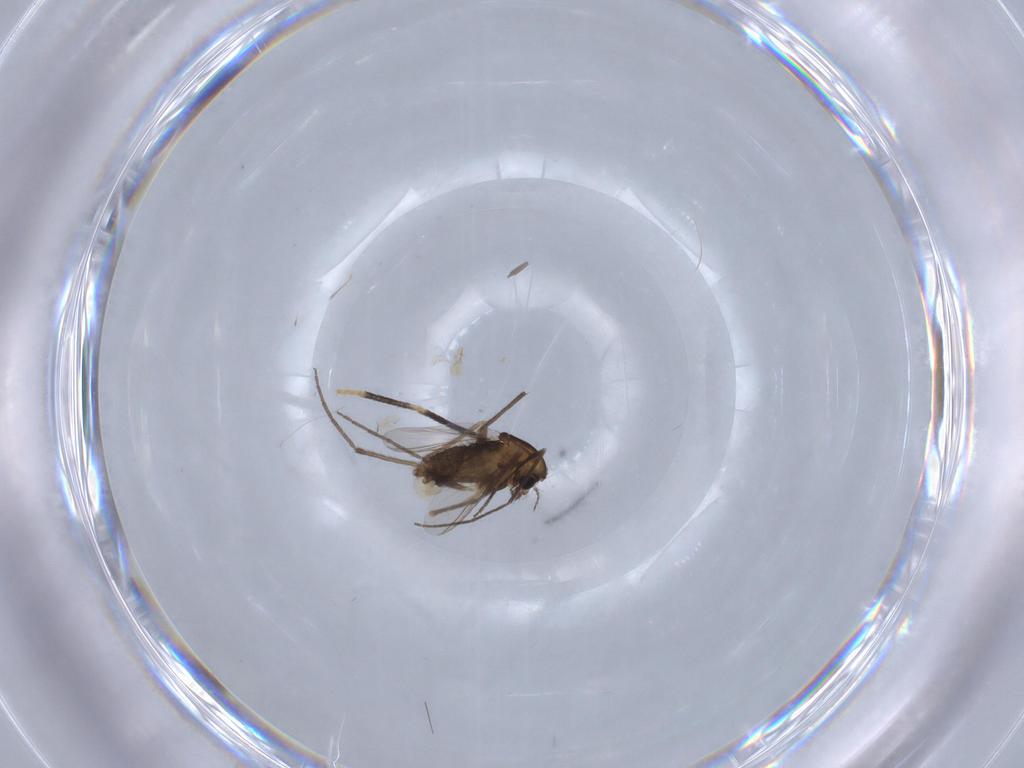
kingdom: Animalia
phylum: Arthropoda
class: Insecta
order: Diptera
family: Chironomidae
